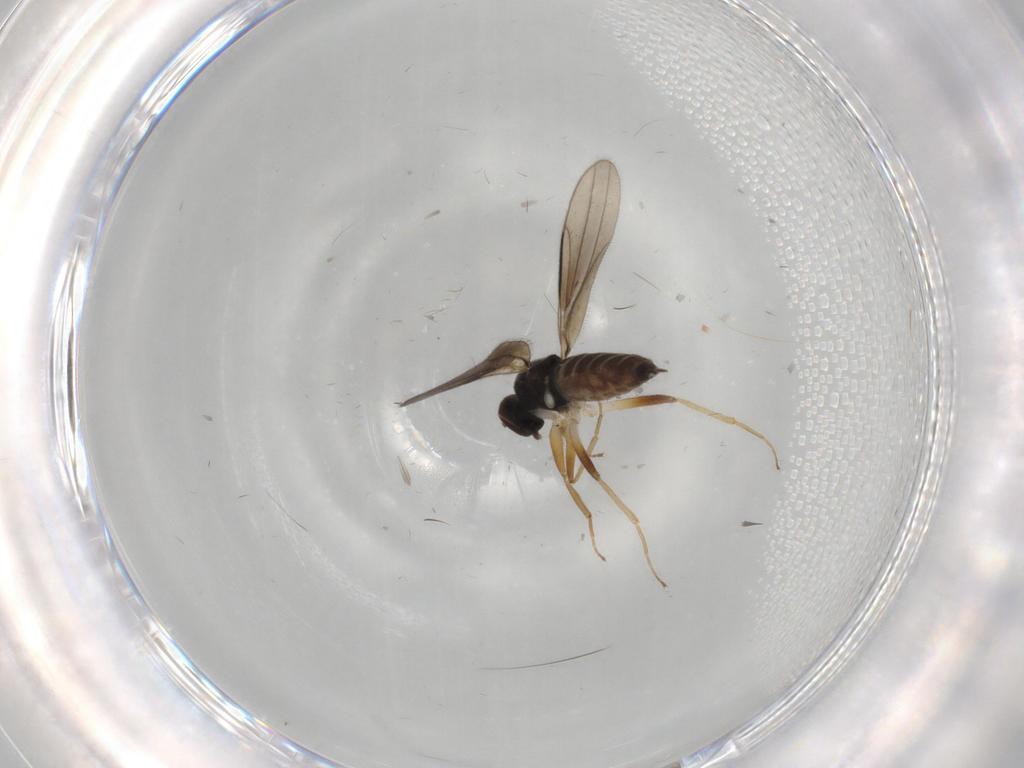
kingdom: Animalia
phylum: Arthropoda
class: Insecta
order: Diptera
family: Hybotidae
